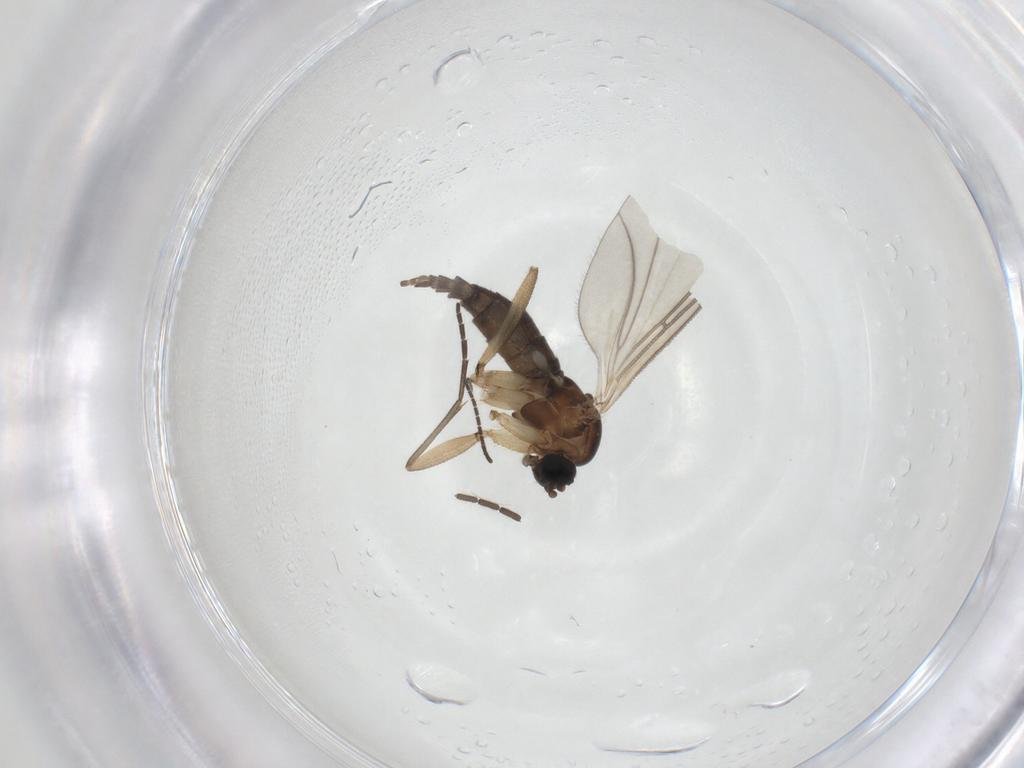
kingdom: Animalia
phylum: Arthropoda
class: Insecta
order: Diptera
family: Sciaridae
